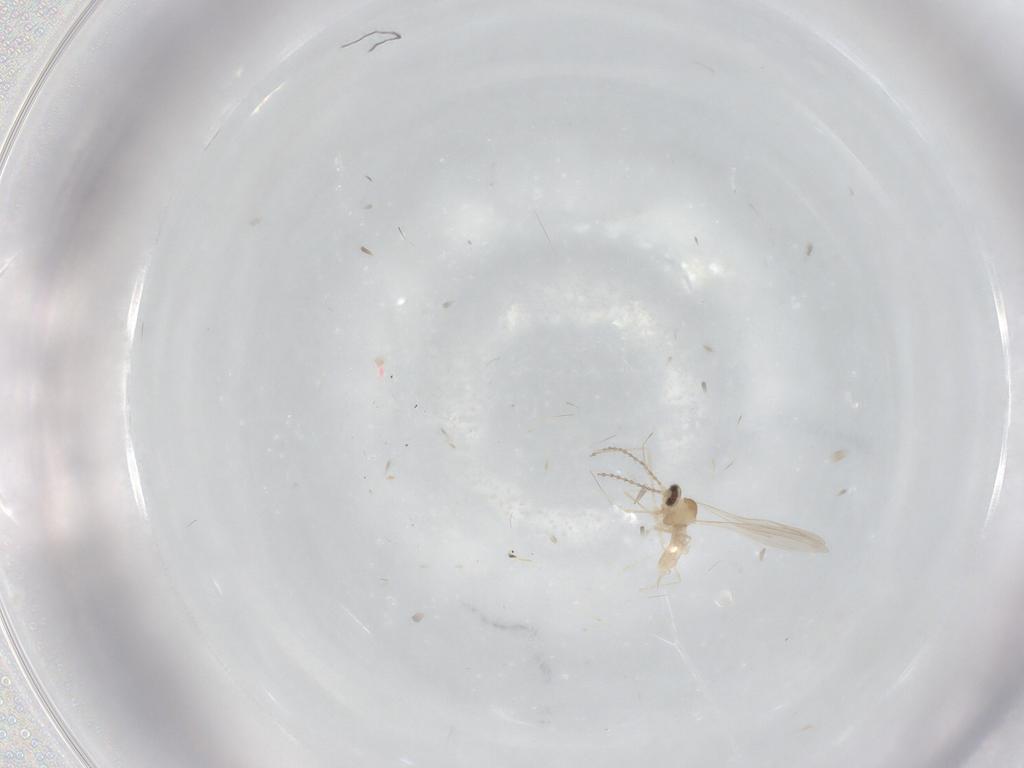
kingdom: Animalia
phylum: Arthropoda
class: Insecta
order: Diptera
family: Cecidomyiidae
